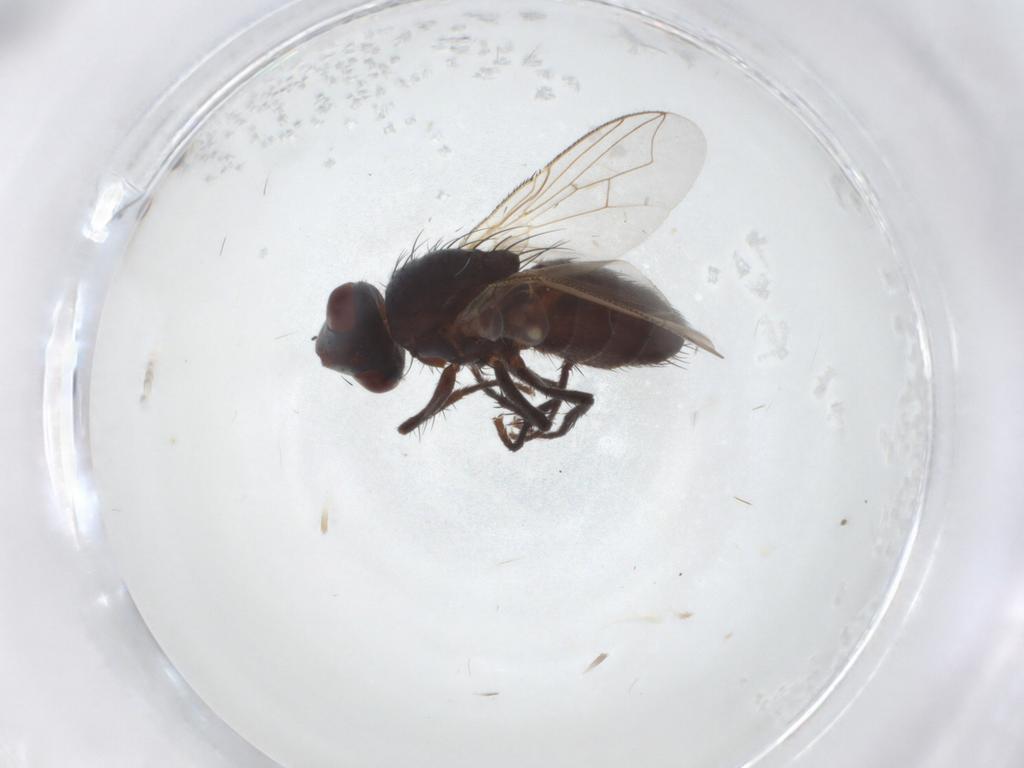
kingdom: Animalia
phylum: Arthropoda
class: Insecta
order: Diptera
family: Sarcophagidae
